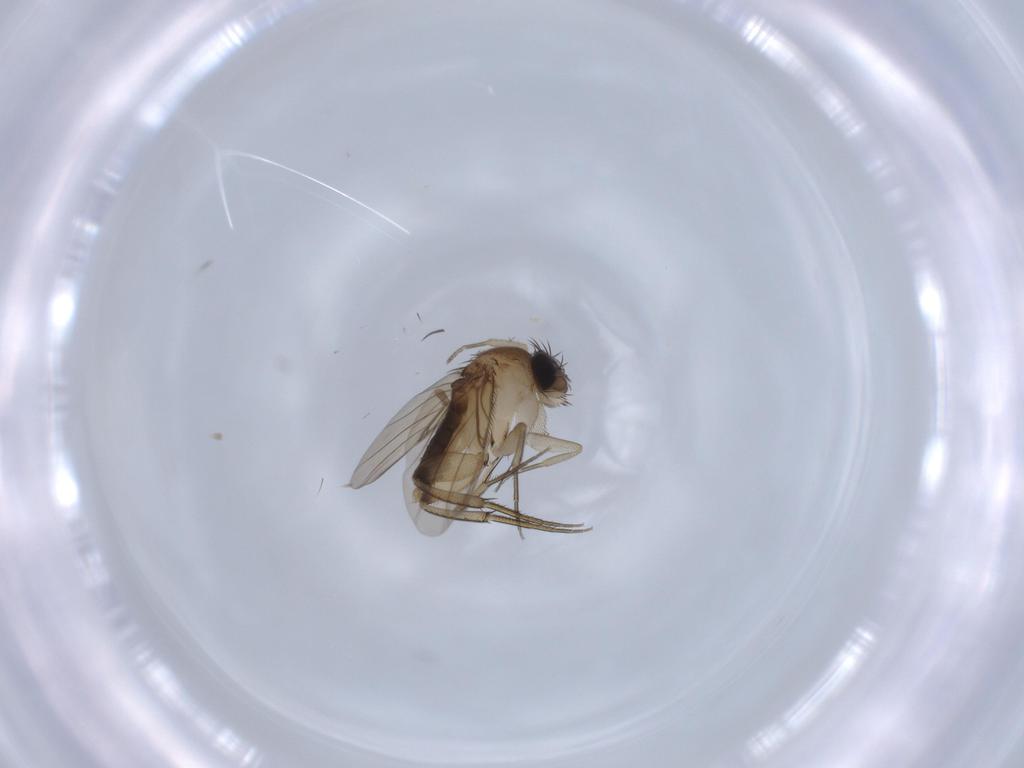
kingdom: Animalia
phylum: Arthropoda
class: Insecta
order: Diptera
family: Phoridae
